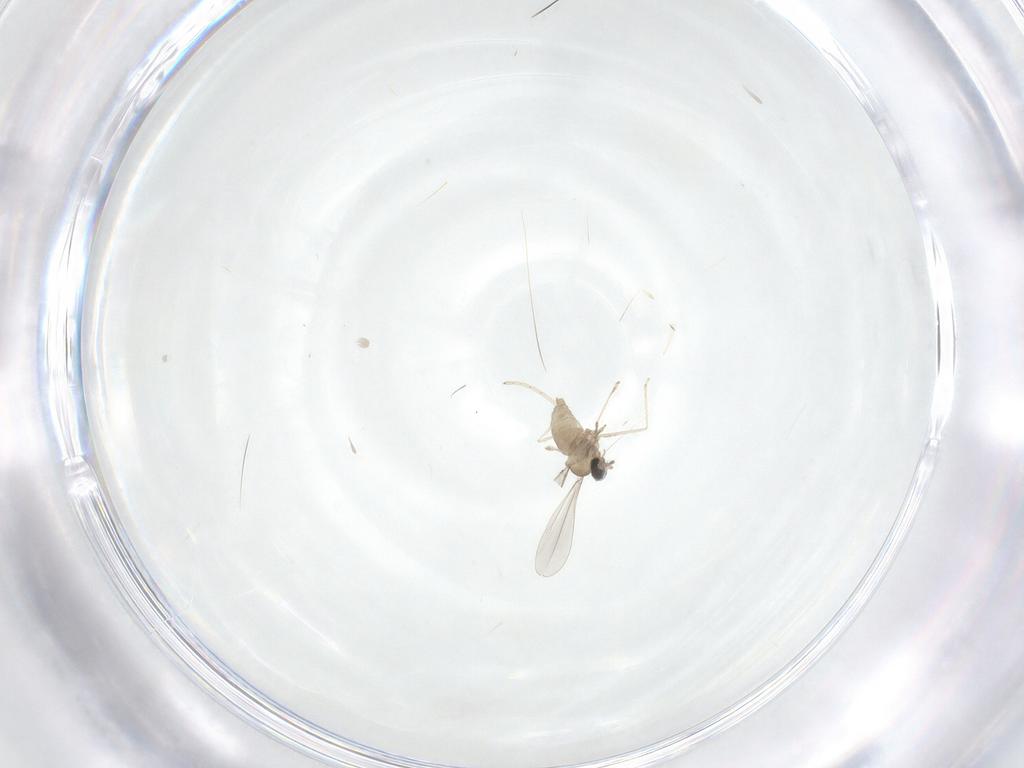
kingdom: Animalia
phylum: Arthropoda
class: Insecta
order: Diptera
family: Cecidomyiidae
